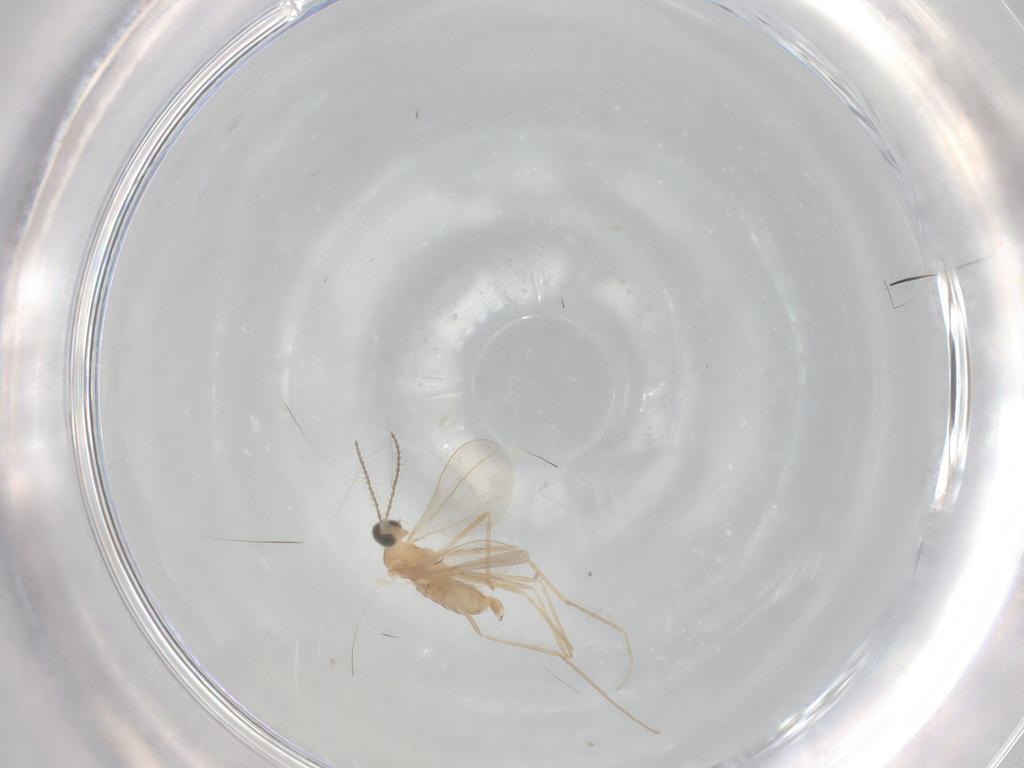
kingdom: Animalia
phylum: Arthropoda
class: Insecta
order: Diptera
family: Cecidomyiidae
